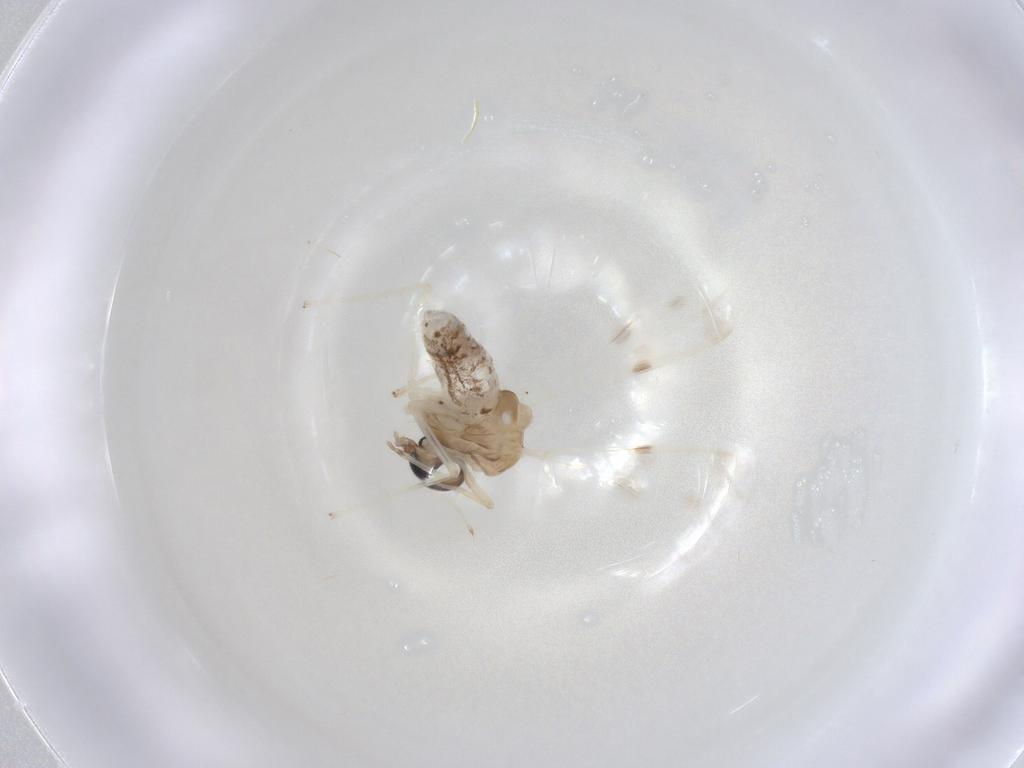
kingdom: Animalia
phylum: Arthropoda
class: Insecta
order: Diptera
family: Chironomidae
